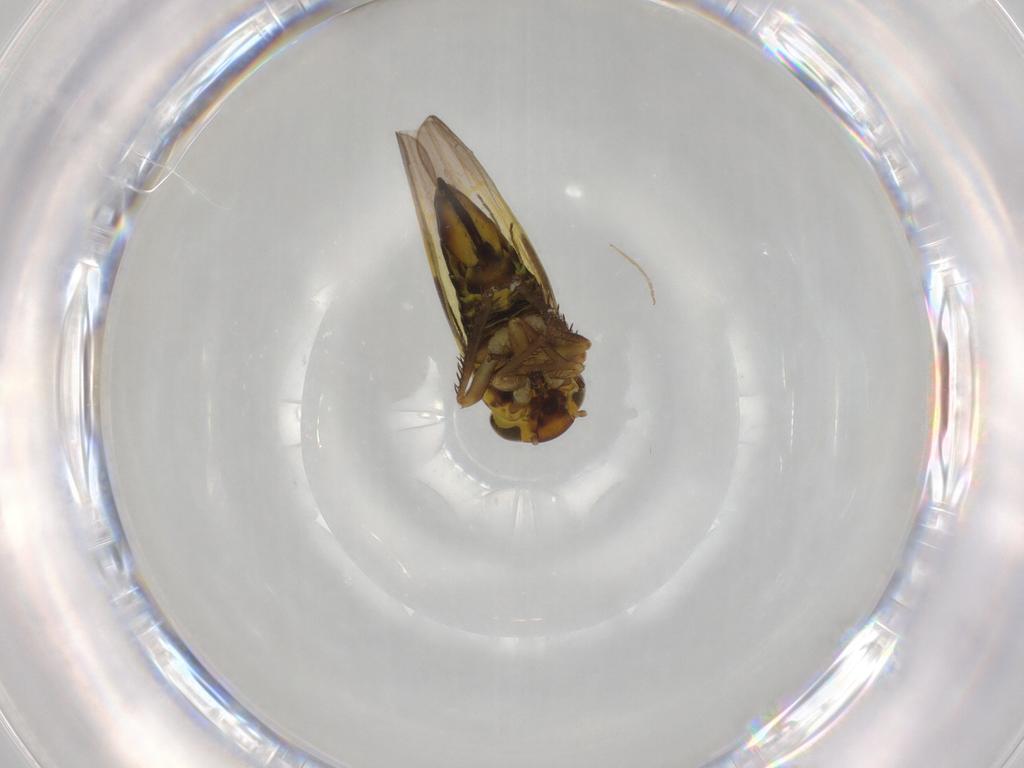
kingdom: Animalia
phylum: Arthropoda
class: Insecta
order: Hemiptera
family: Cicadellidae
